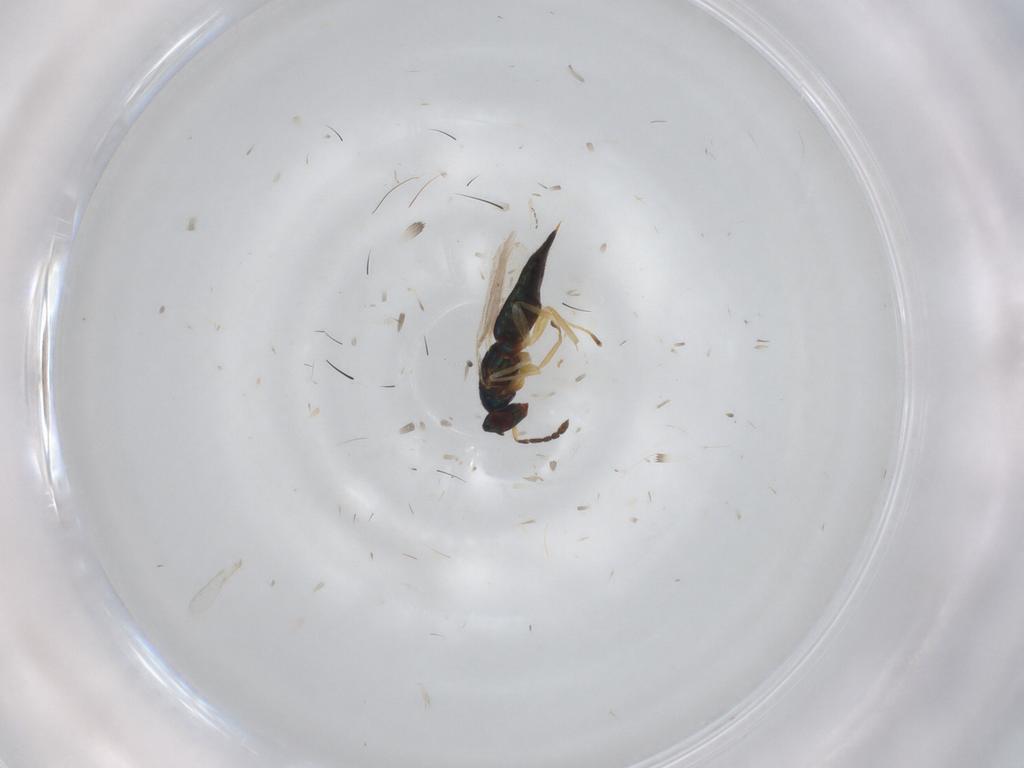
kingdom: Animalia
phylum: Arthropoda
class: Insecta
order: Hymenoptera
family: Eulophidae
